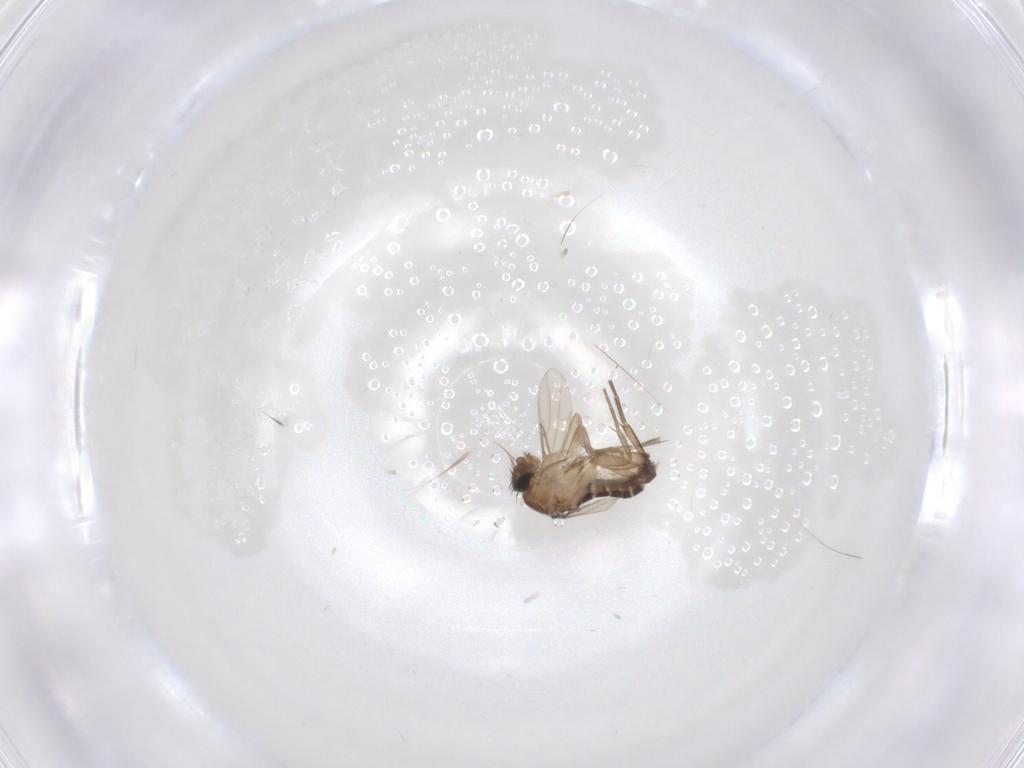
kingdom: Animalia
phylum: Arthropoda
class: Insecta
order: Diptera
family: Phoridae
